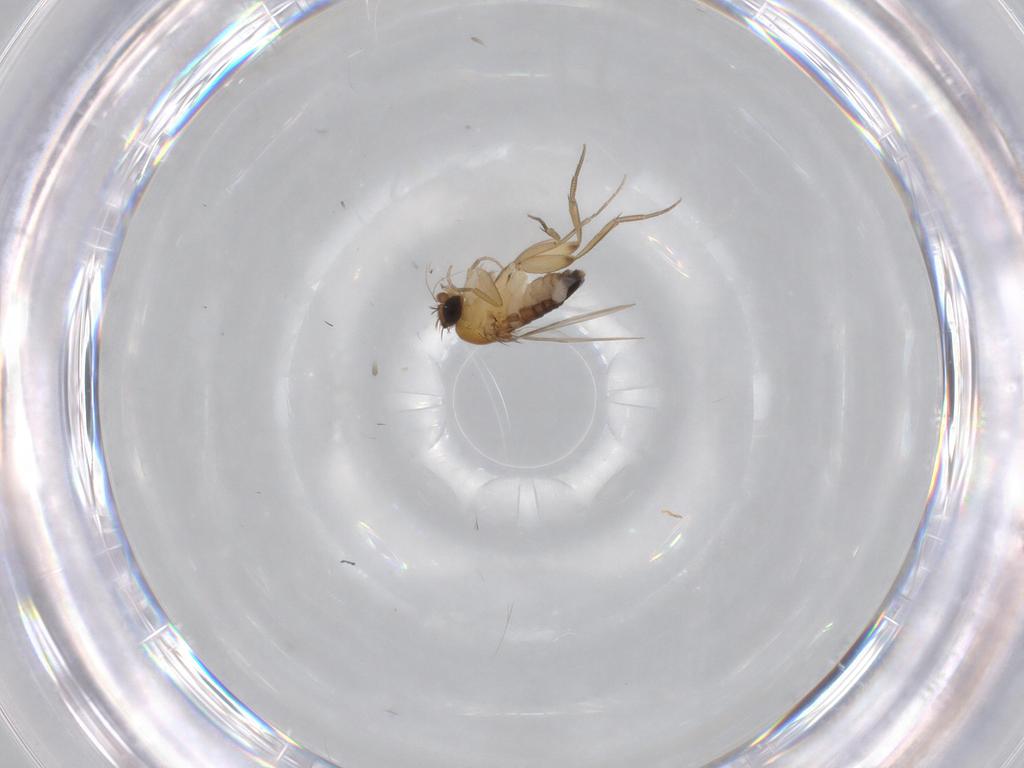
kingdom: Animalia
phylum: Arthropoda
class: Insecta
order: Diptera
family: Phoridae
